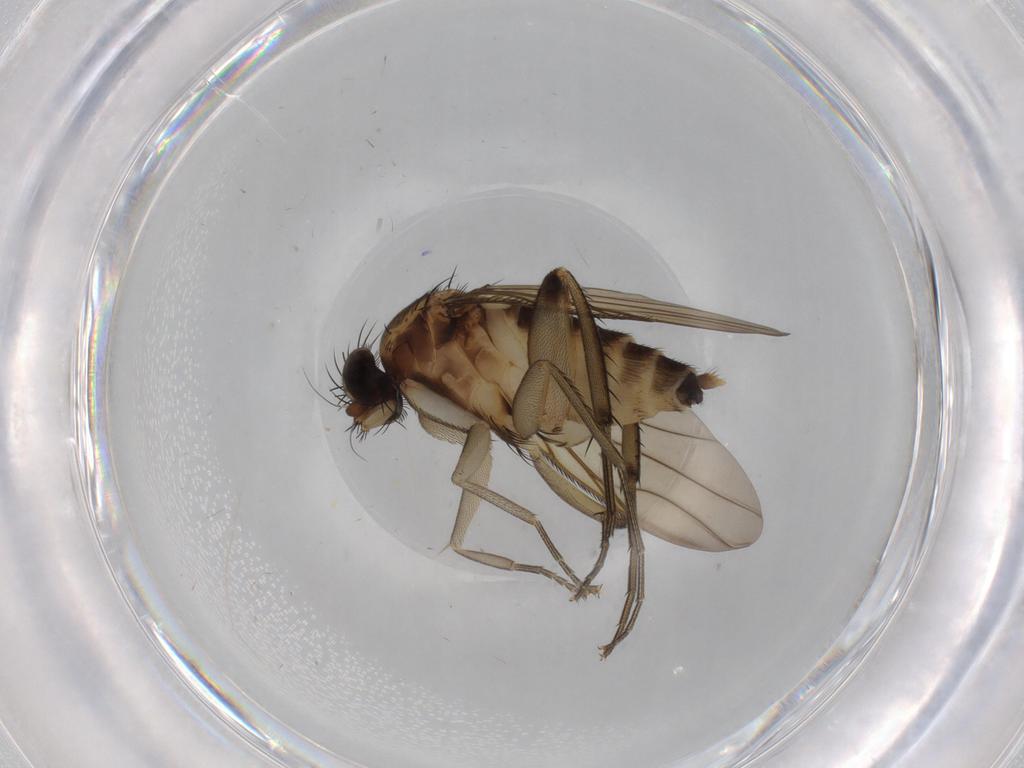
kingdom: Animalia
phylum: Arthropoda
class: Insecta
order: Diptera
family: Phoridae
